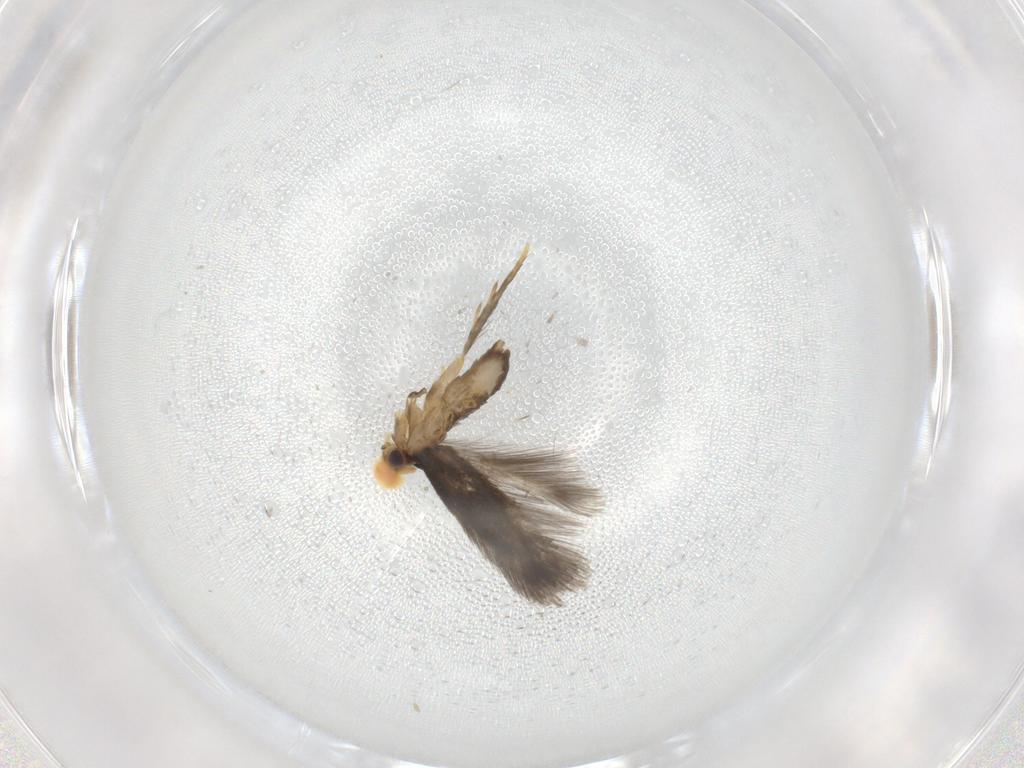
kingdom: Animalia
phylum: Arthropoda
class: Insecta
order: Lepidoptera
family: Nepticulidae
